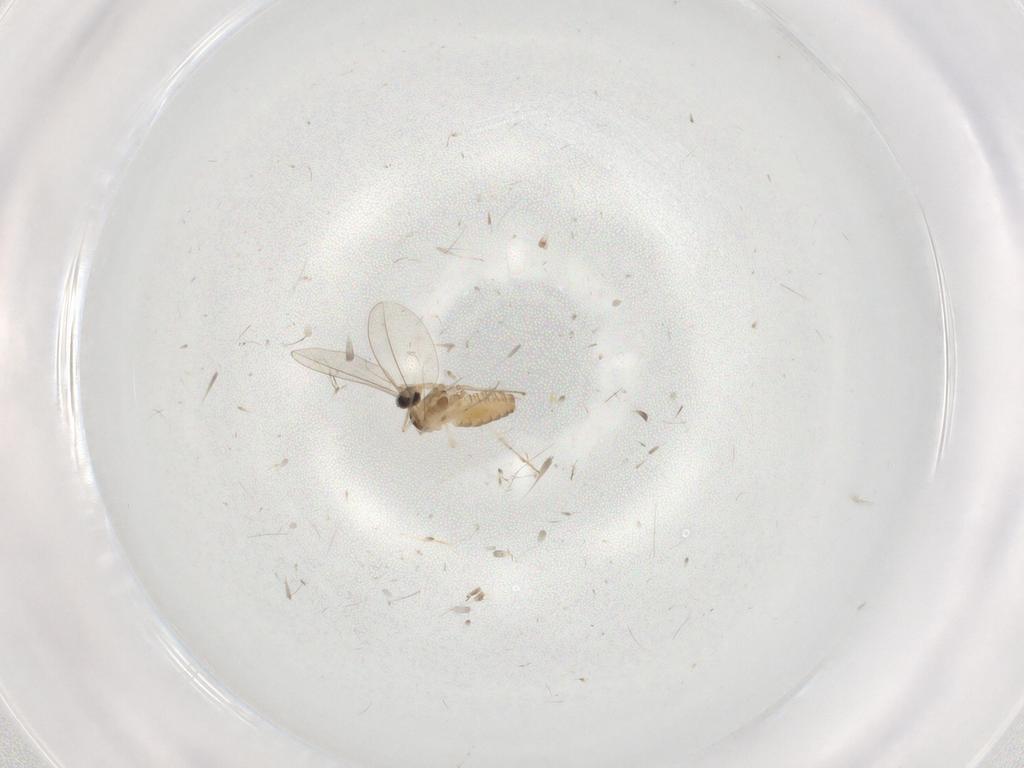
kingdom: Animalia
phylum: Arthropoda
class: Insecta
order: Diptera
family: Cecidomyiidae
